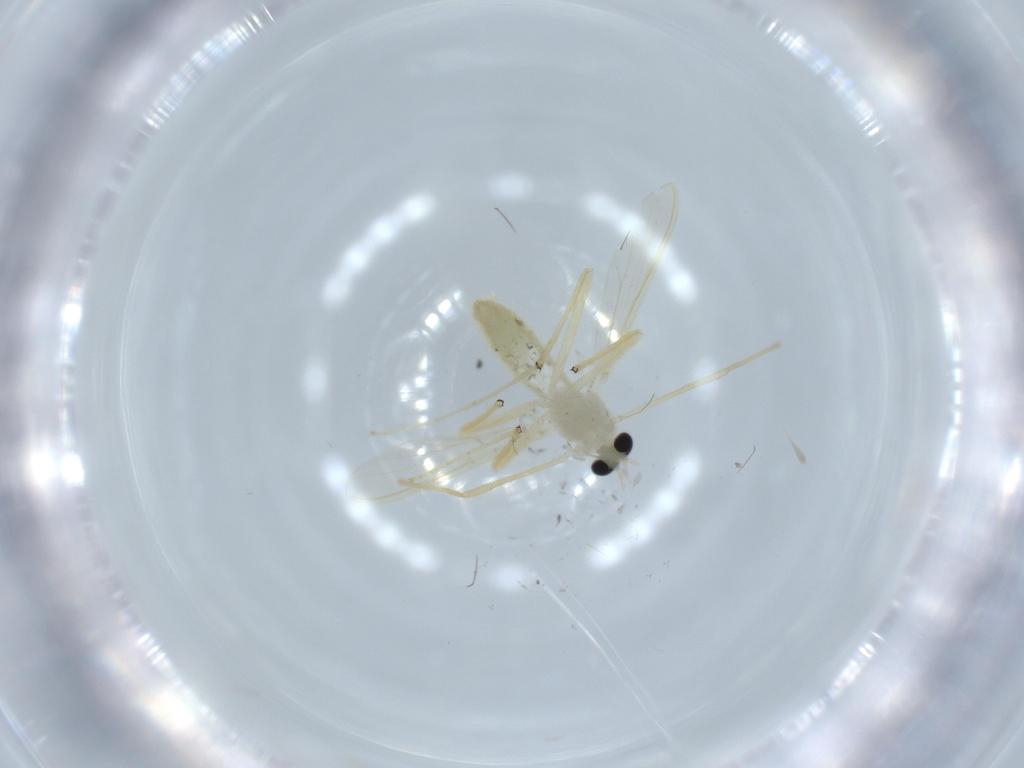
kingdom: Animalia
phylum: Arthropoda
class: Insecta
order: Diptera
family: Chironomidae
